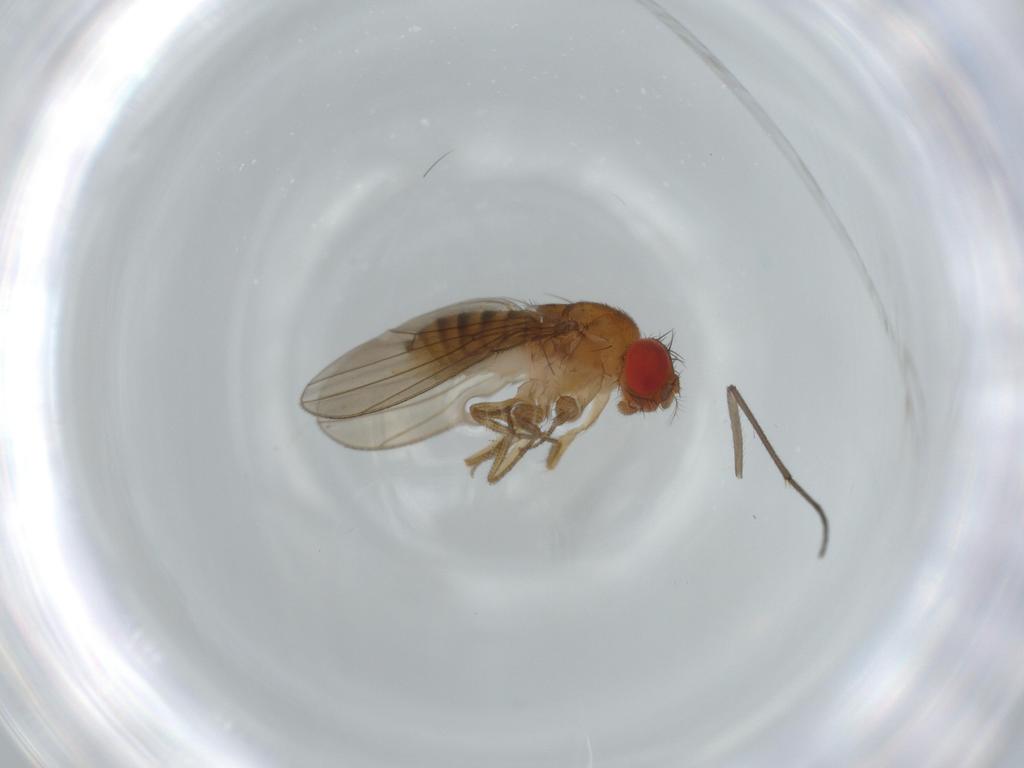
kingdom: Animalia
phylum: Arthropoda
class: Insecta
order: Diptera
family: Drosophilidae
